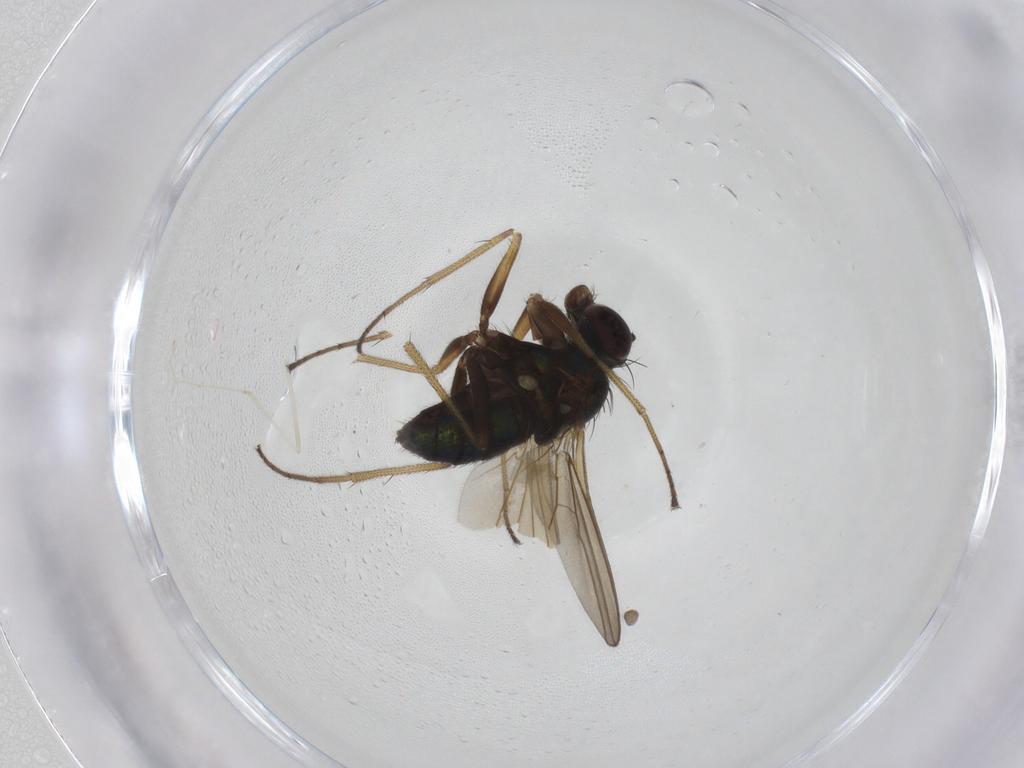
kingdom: Animalia
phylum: Arthropoda
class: Insecta
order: Diptera
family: Dolichopodidae
